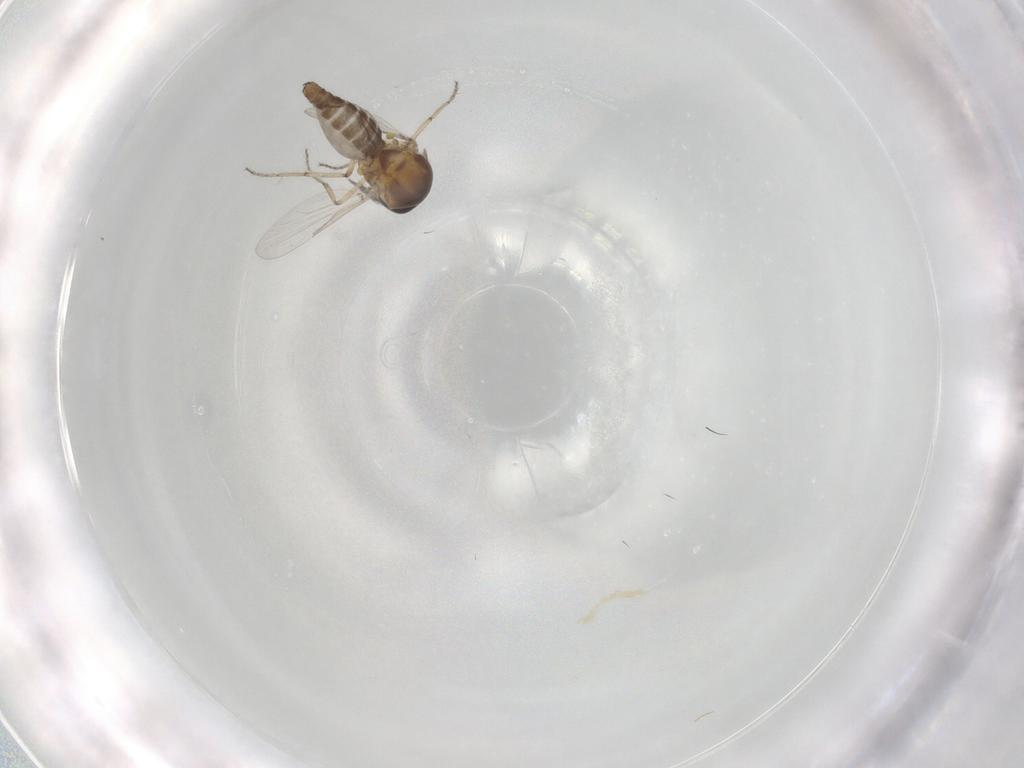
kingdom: Animalia
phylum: Arthropoda
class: Insecta
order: Diptera
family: Ceratopogonidae
